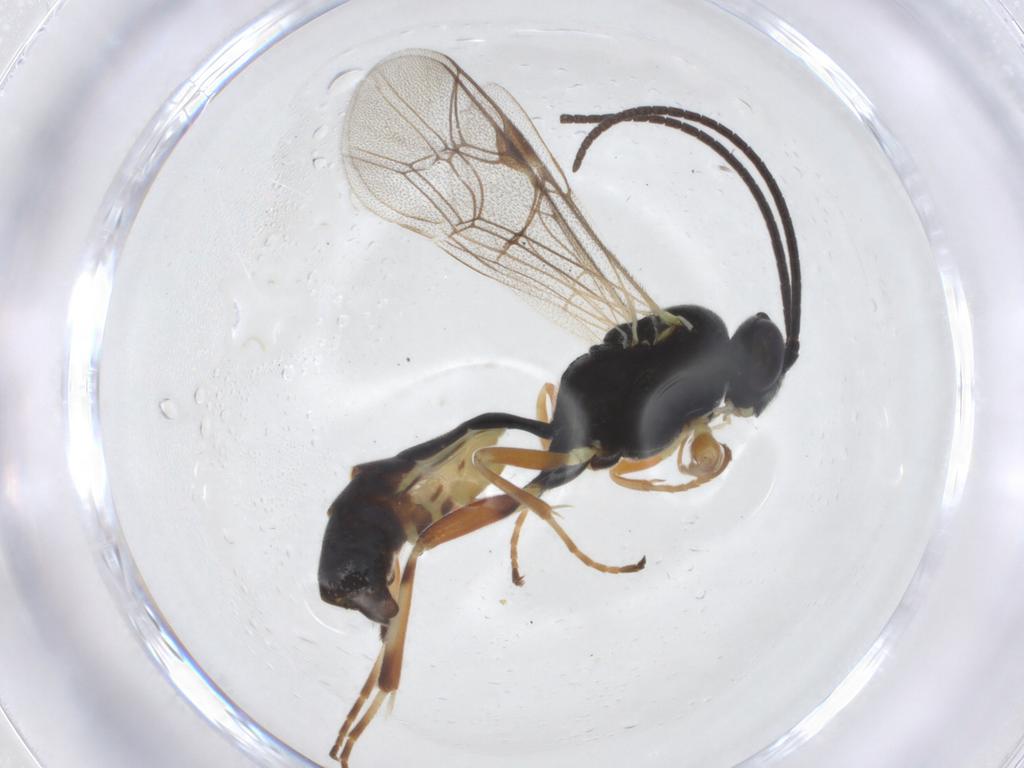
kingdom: Animalia
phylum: Arthropoda
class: Insecta
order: Hymenoptera
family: Ichneumonidae
